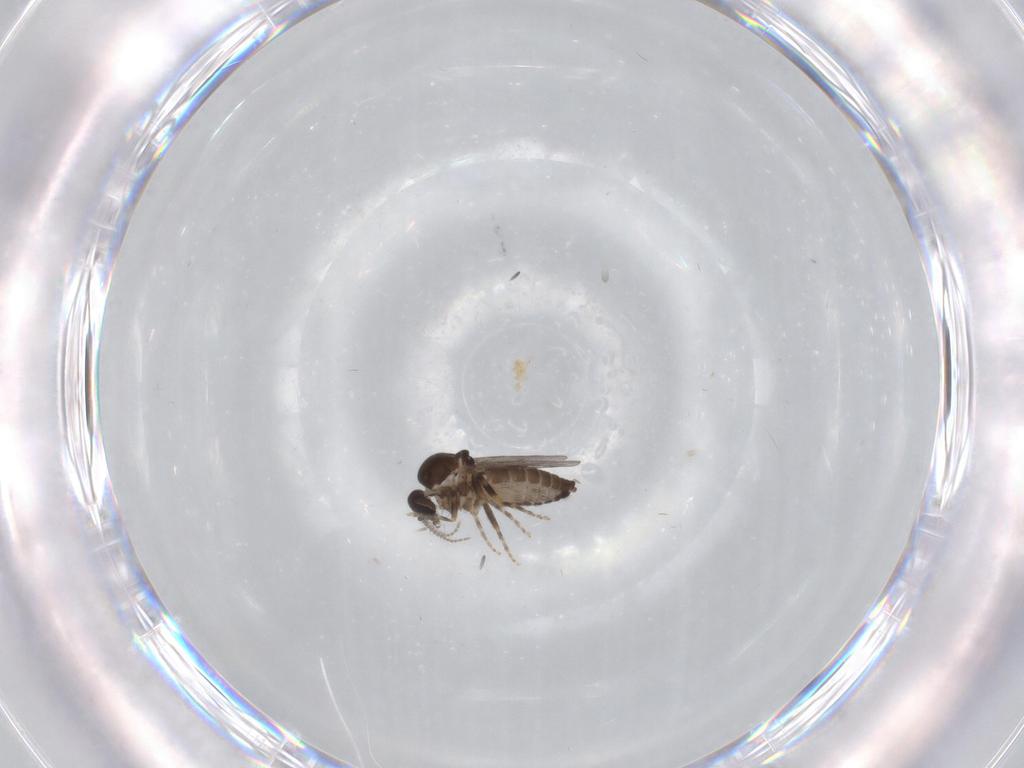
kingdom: Animalia
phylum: Arthropoda
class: Insecta
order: Diptera
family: Ceratopogonidae
